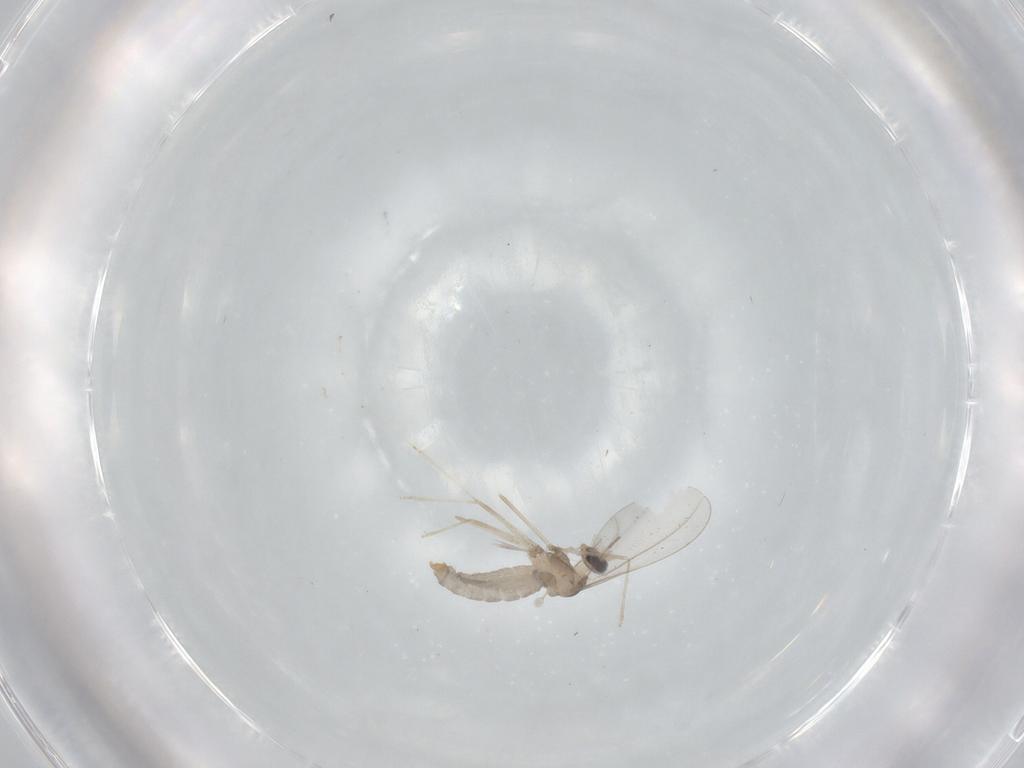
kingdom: Animalia
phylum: Arthropoda
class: Insecta
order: Diptera
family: Cecidomyiidae
